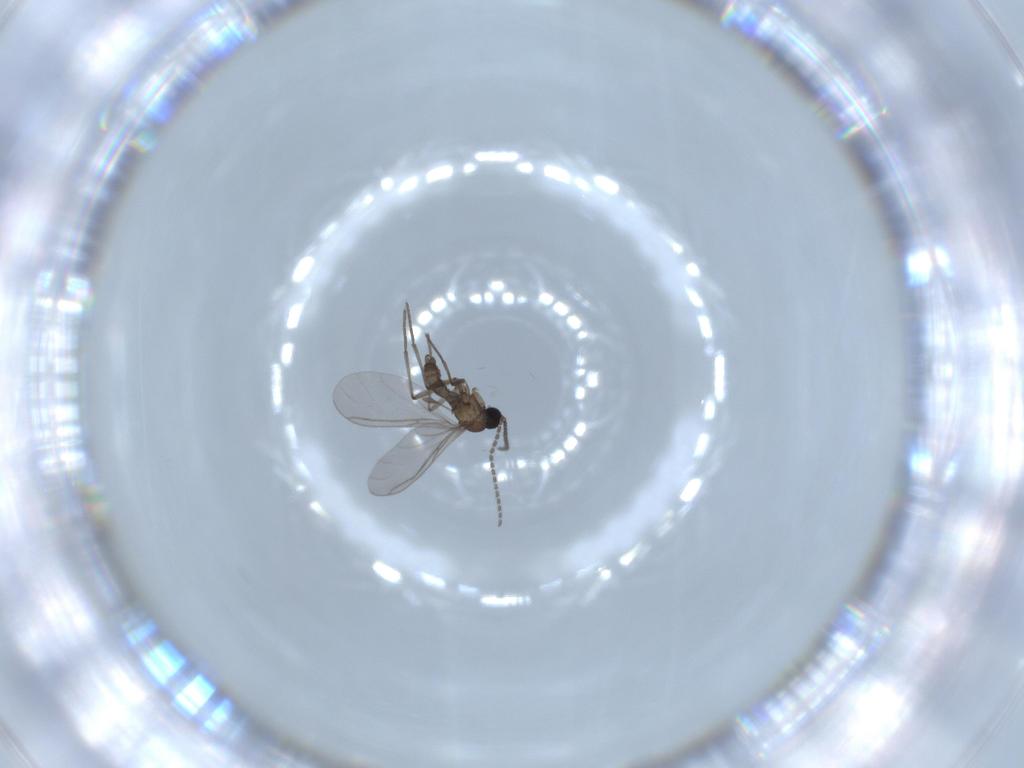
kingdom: Animalia
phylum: Arthropoda
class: Insecta
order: Diptera
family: Sciaridae
